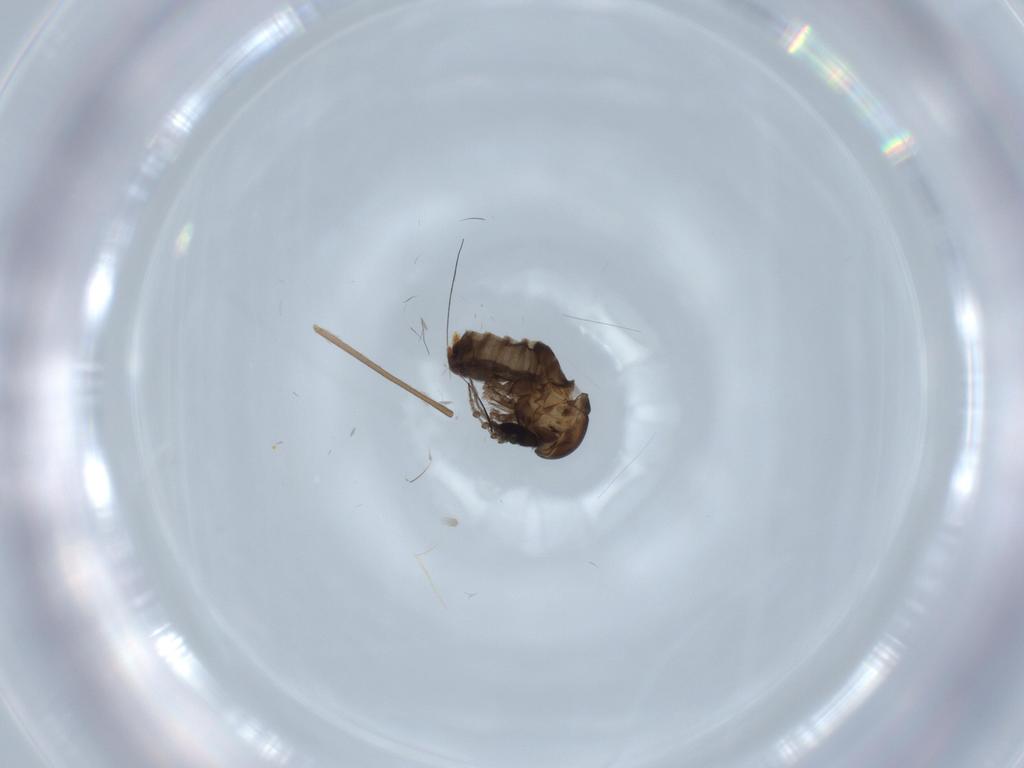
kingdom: Animalia
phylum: Arthropoda
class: Insecta
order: Diptera
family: Psychodidae
